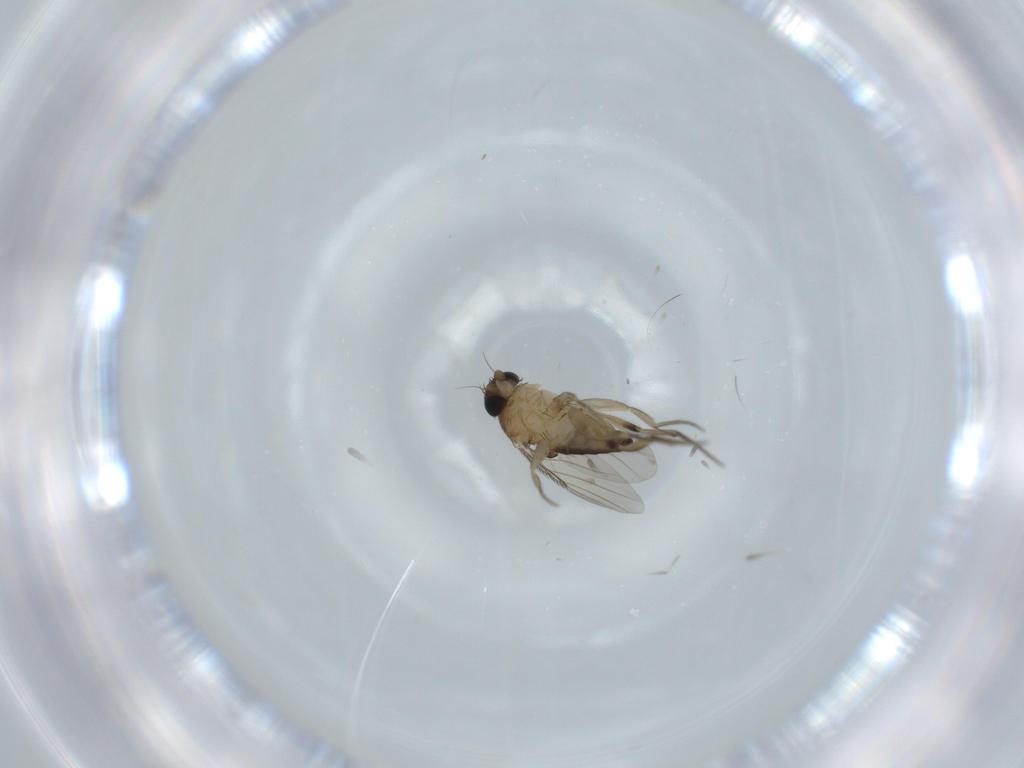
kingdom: Animalia
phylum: Arthropoda
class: Insecta
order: Diptera
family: Phoridae
